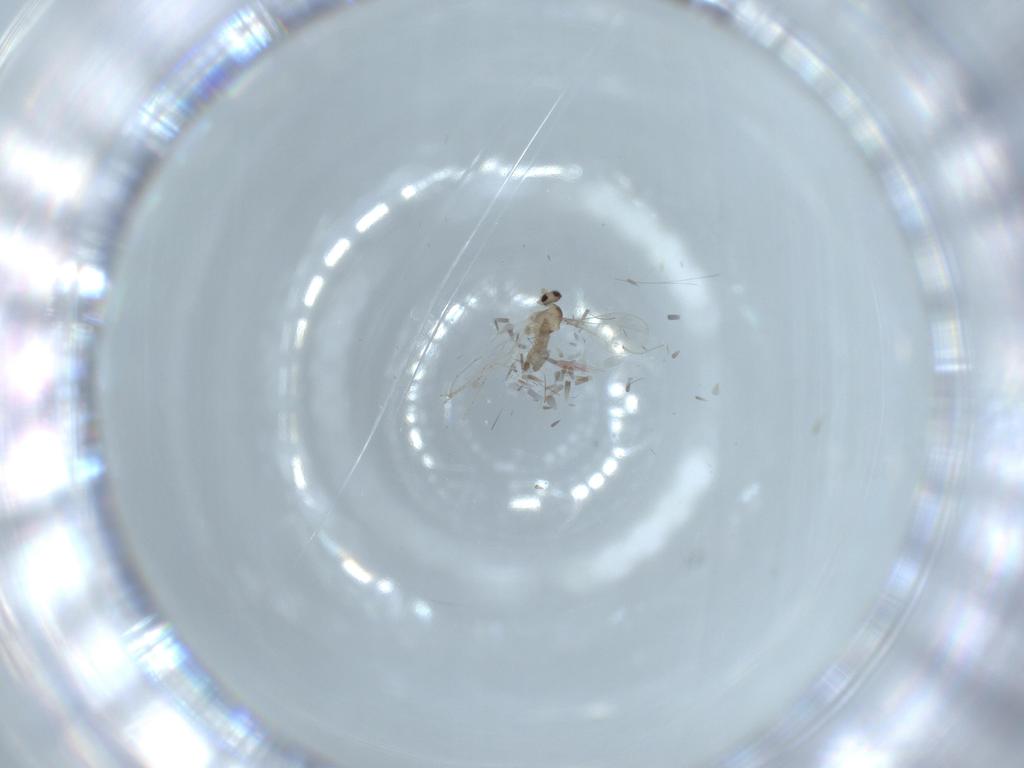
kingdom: Animalia
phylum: Arthropoda
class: Insecta
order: Diptera
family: Cecidomyiidae
